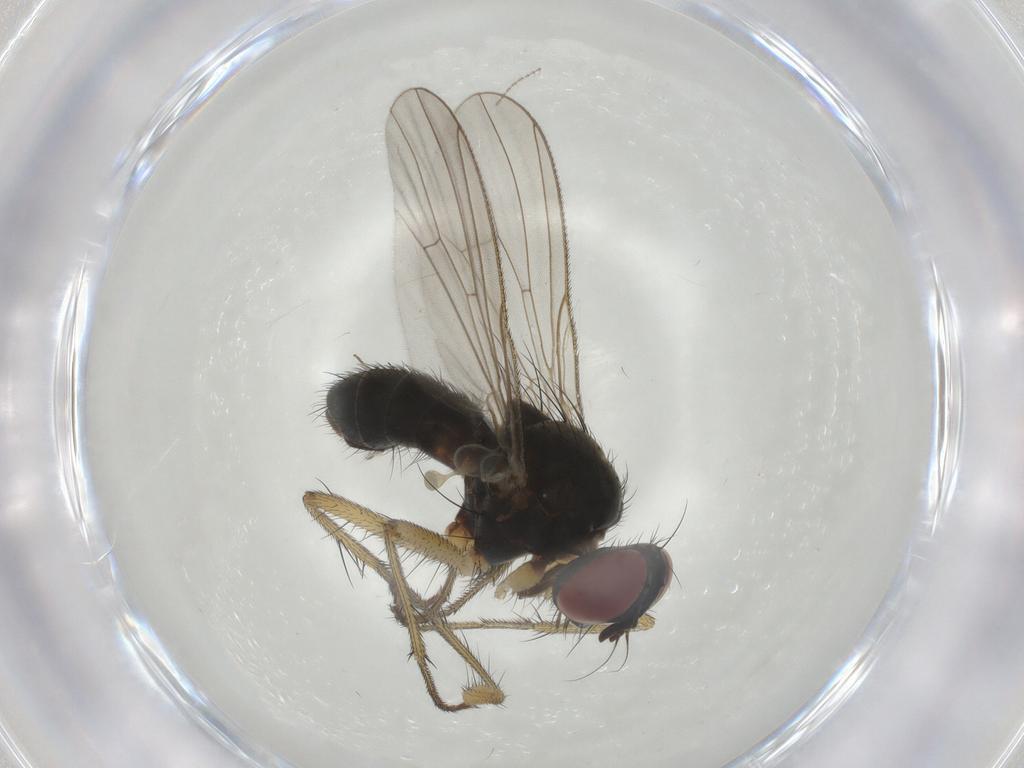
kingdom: Animalia
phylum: Arthropoda
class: Insecta
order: Diptera
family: Muscidae
